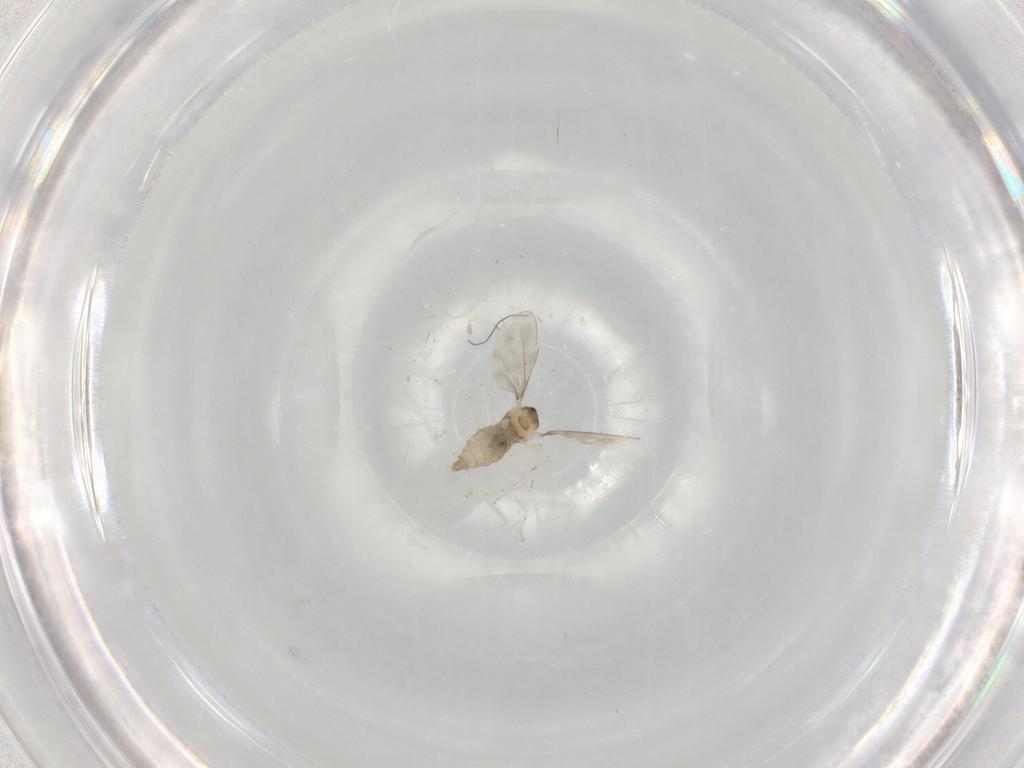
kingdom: Animalia
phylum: Arthropoda
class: Insecta
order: Diptera
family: Cecidomyiidae
